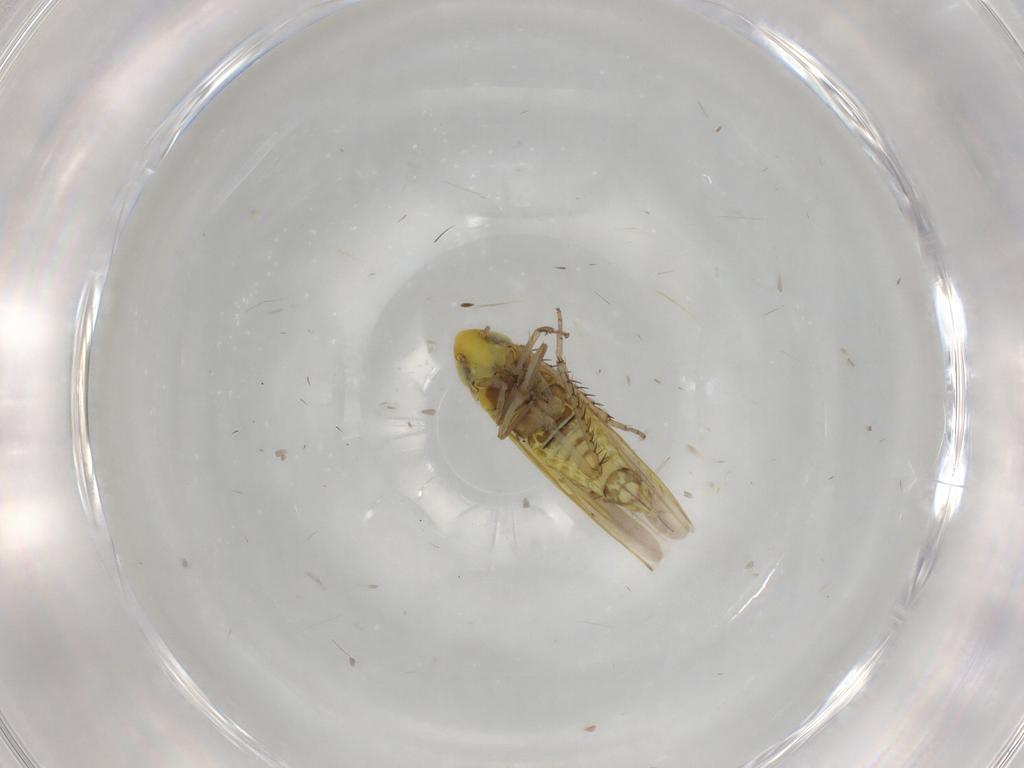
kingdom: Animalia
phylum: Arthropoda
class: Insecta
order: Hemiptera
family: Cicadellidae
